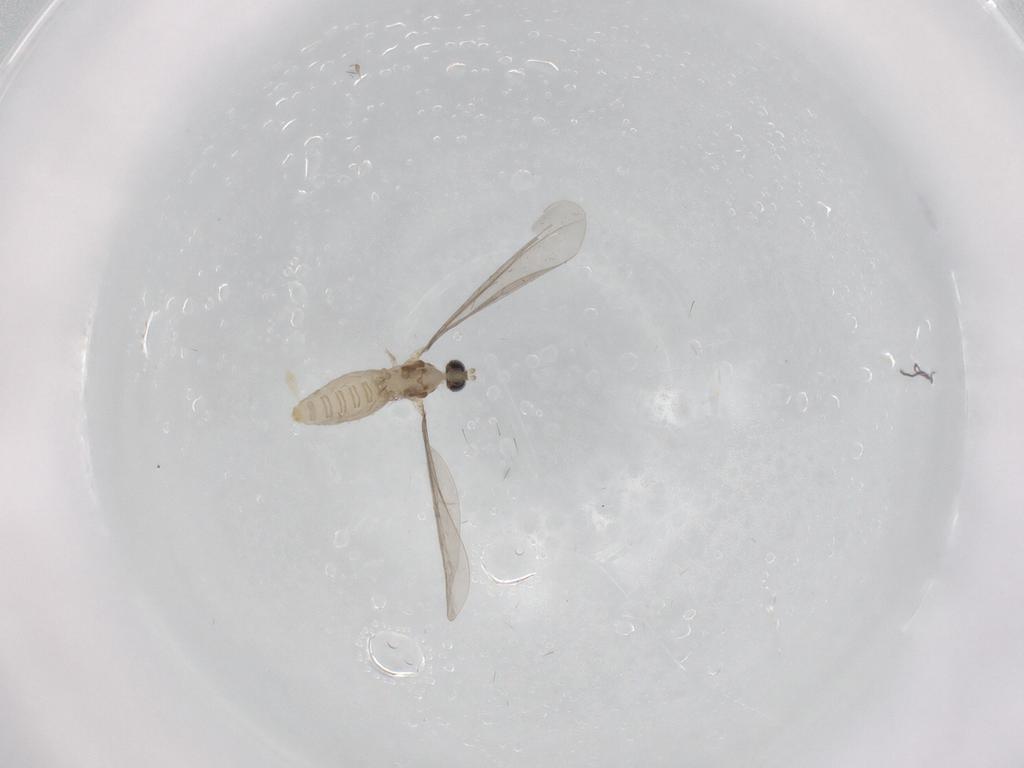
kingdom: Animalia
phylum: Arthropoda
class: Insecta
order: Diptera
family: Cecidomyiidae
